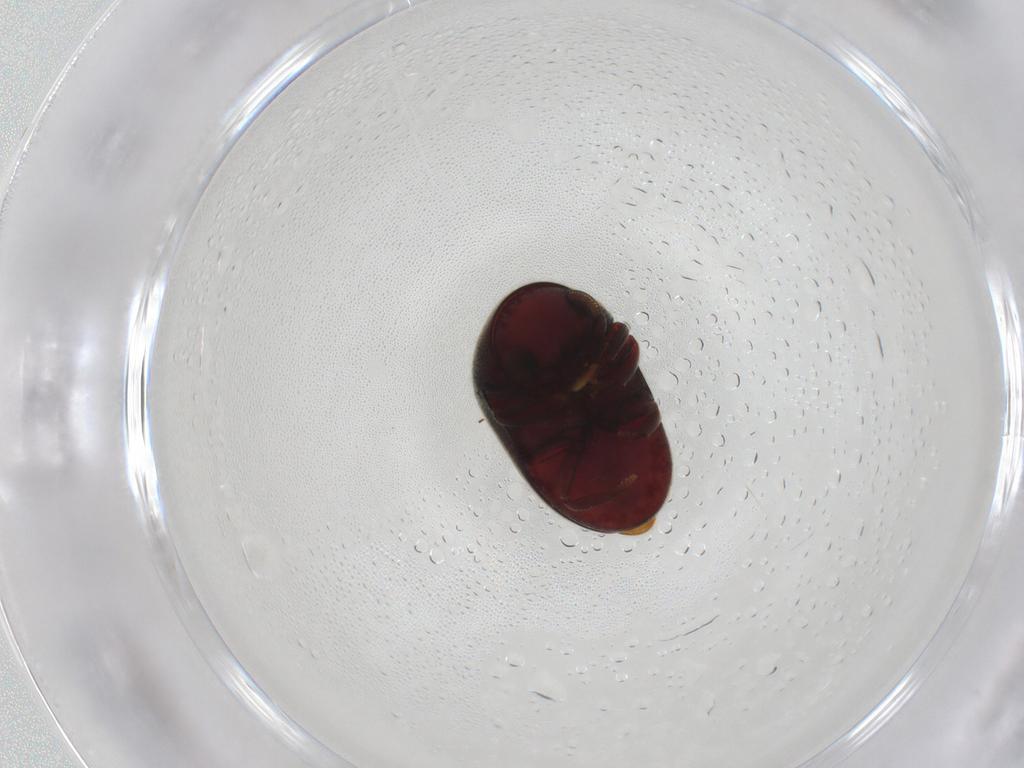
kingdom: Animalia
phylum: Arthropoda
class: Insecta
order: Coleoptera
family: Ptinidae
